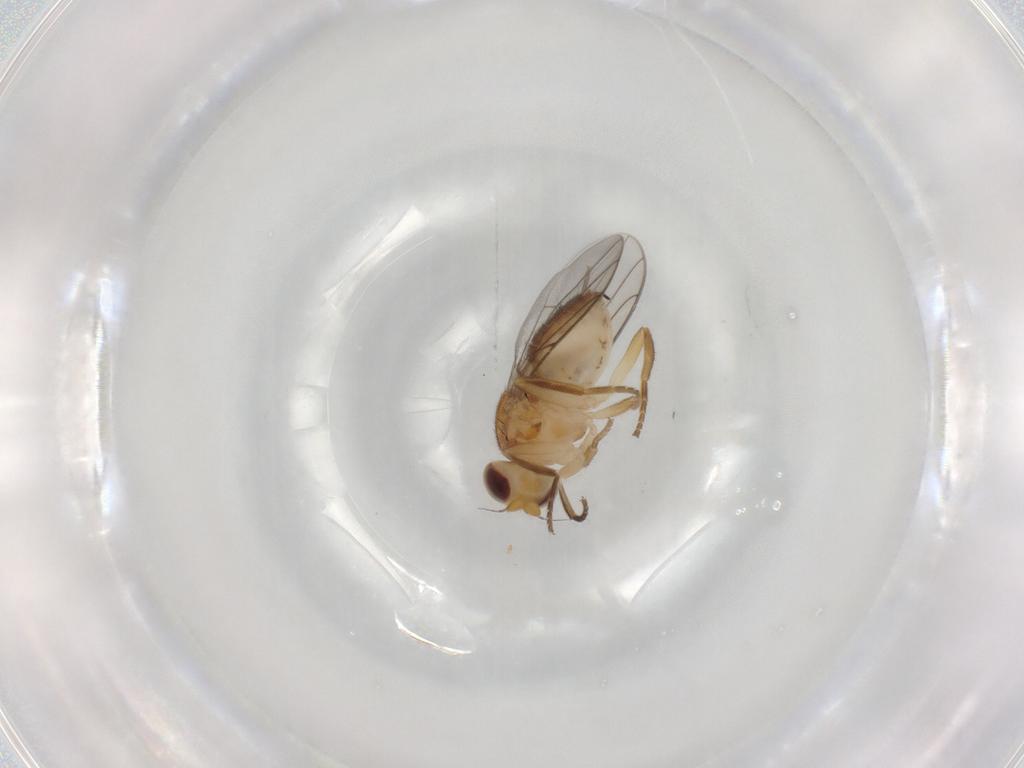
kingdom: Animalia
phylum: Arthropoda
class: Insecta
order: Diptera
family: Chloropidae
